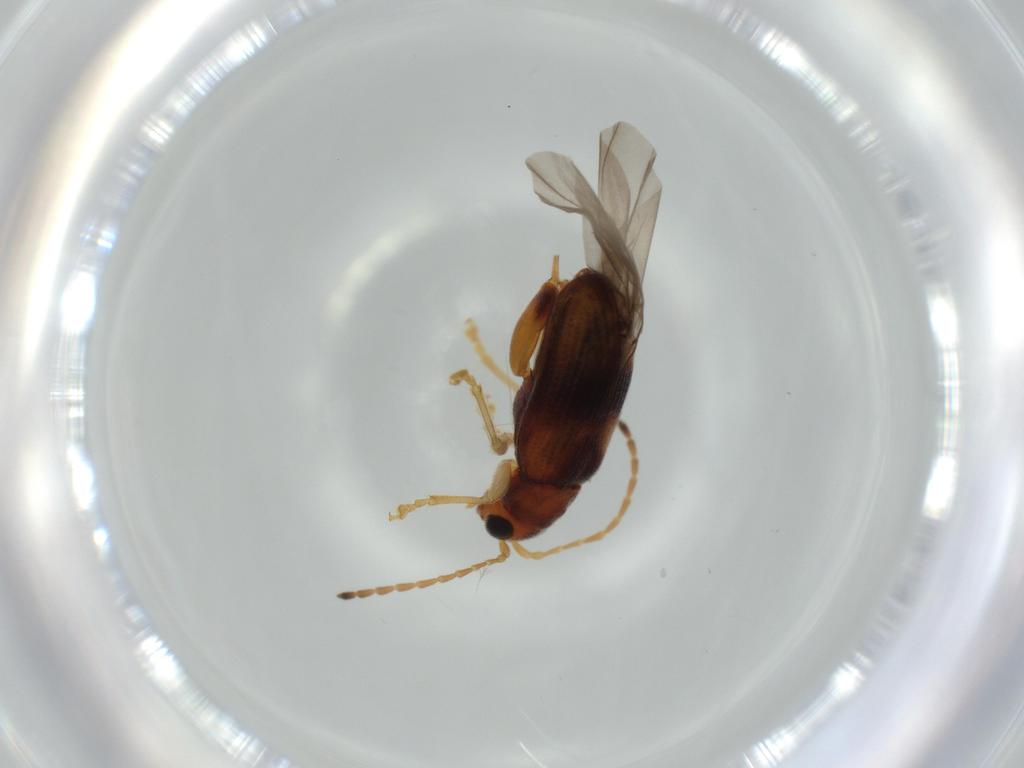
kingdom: Animalia
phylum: Arthropoda
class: Insecta
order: Coleoptera
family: Chrysomelidae
